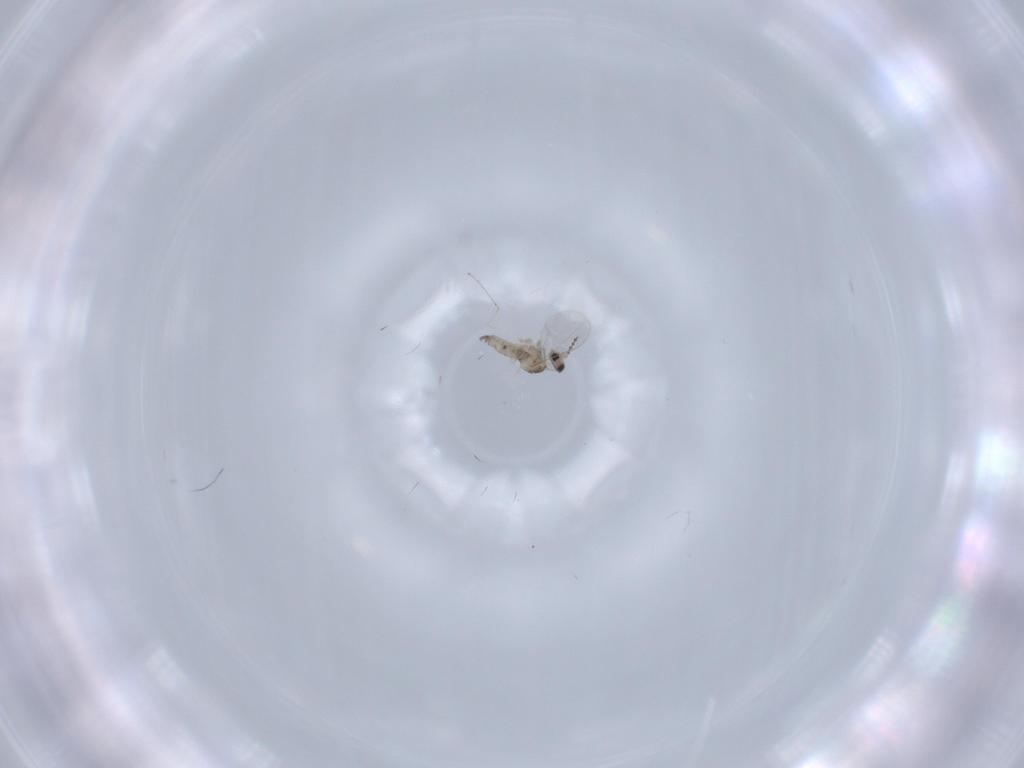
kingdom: Animalia
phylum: Arthropoda
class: Insecta
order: Diptera
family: Cecidomyiidae
